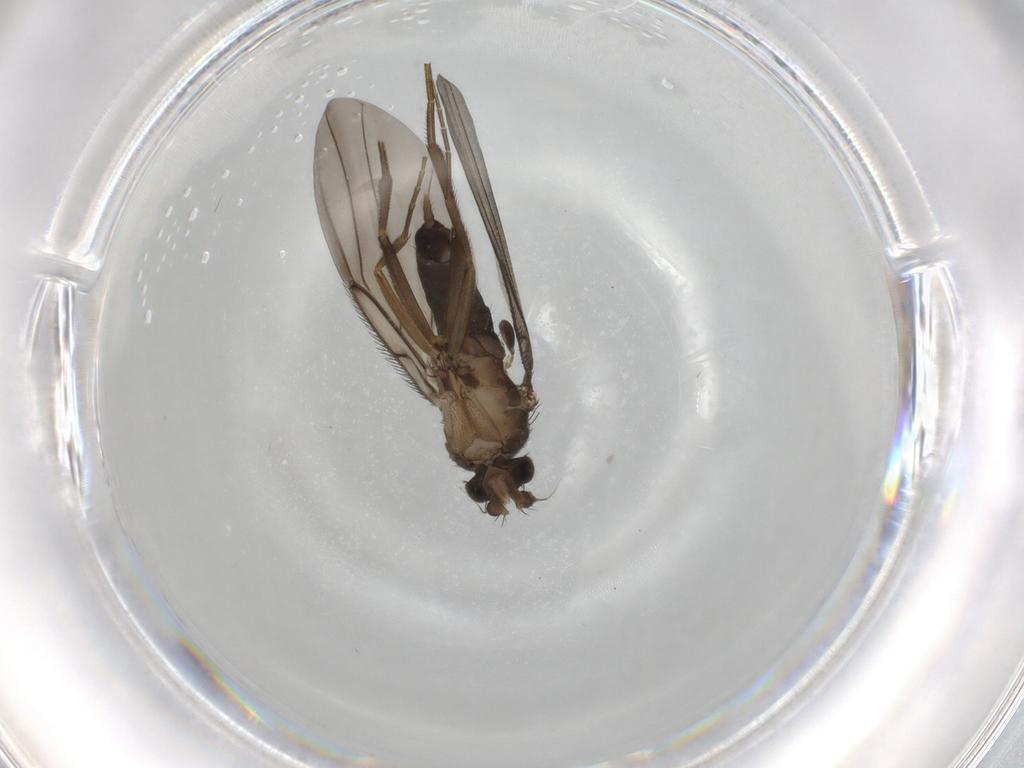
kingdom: Animalia
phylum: Arthropoda
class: Insecta
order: Diptera
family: Phoridae
